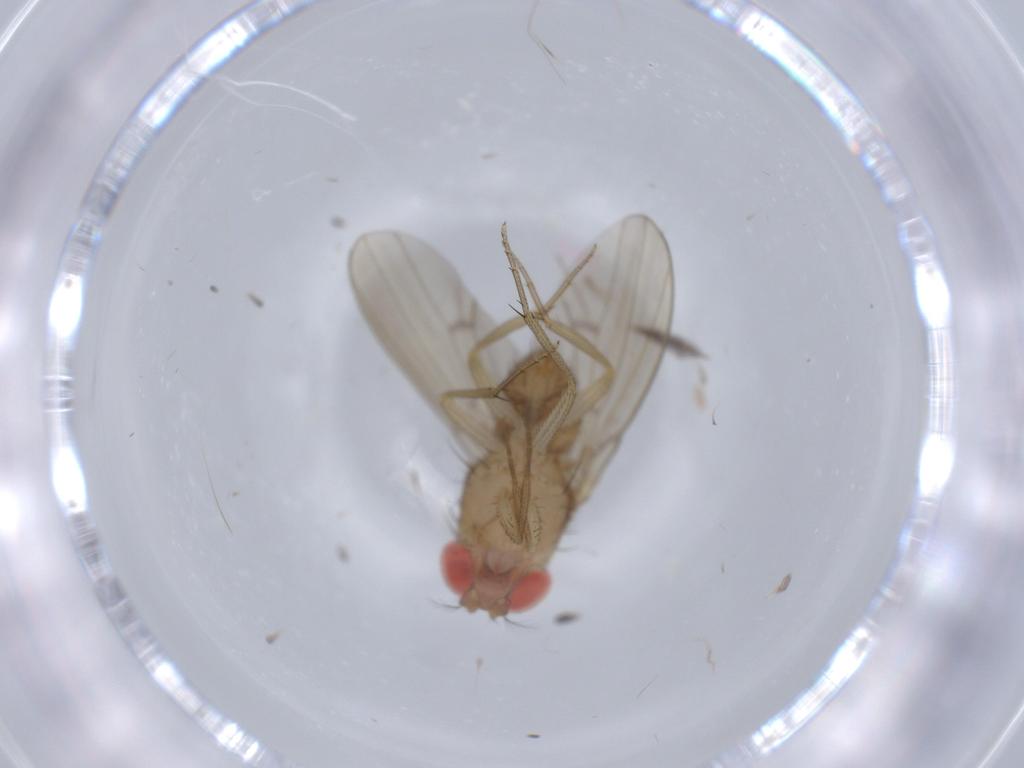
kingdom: Animalia
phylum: Arthropoda
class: Insecta
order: Diptera
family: Drosophilidae
